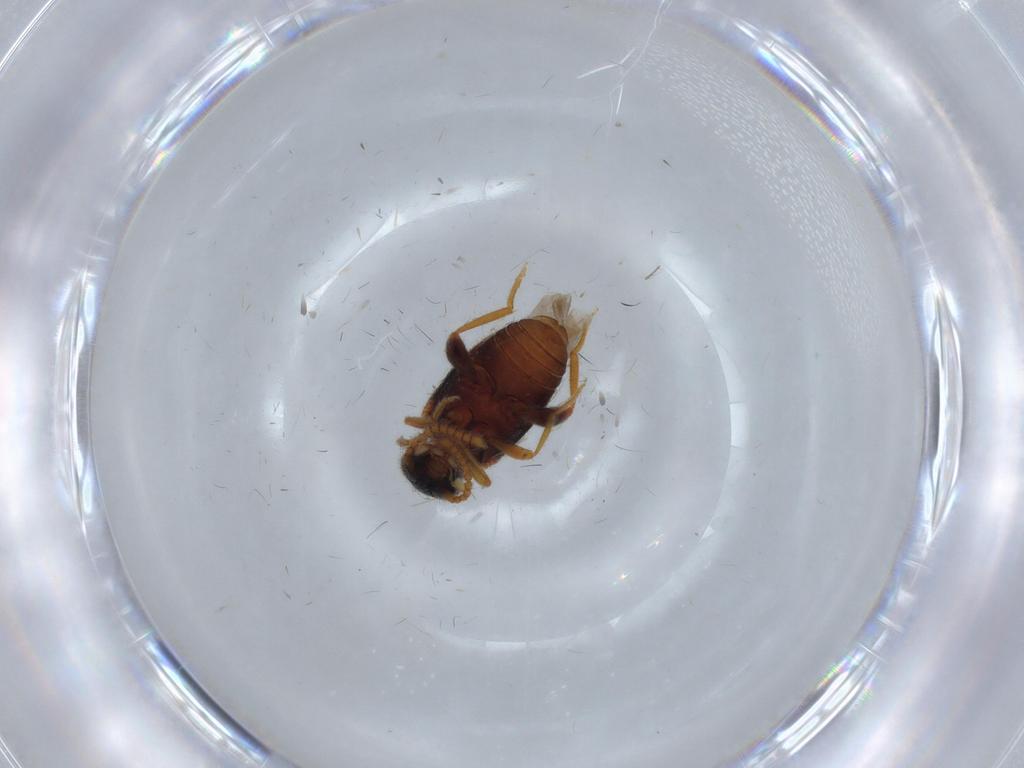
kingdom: Animalia
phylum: Arthropoda
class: Insecta
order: Coleoptera
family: Aderidae
